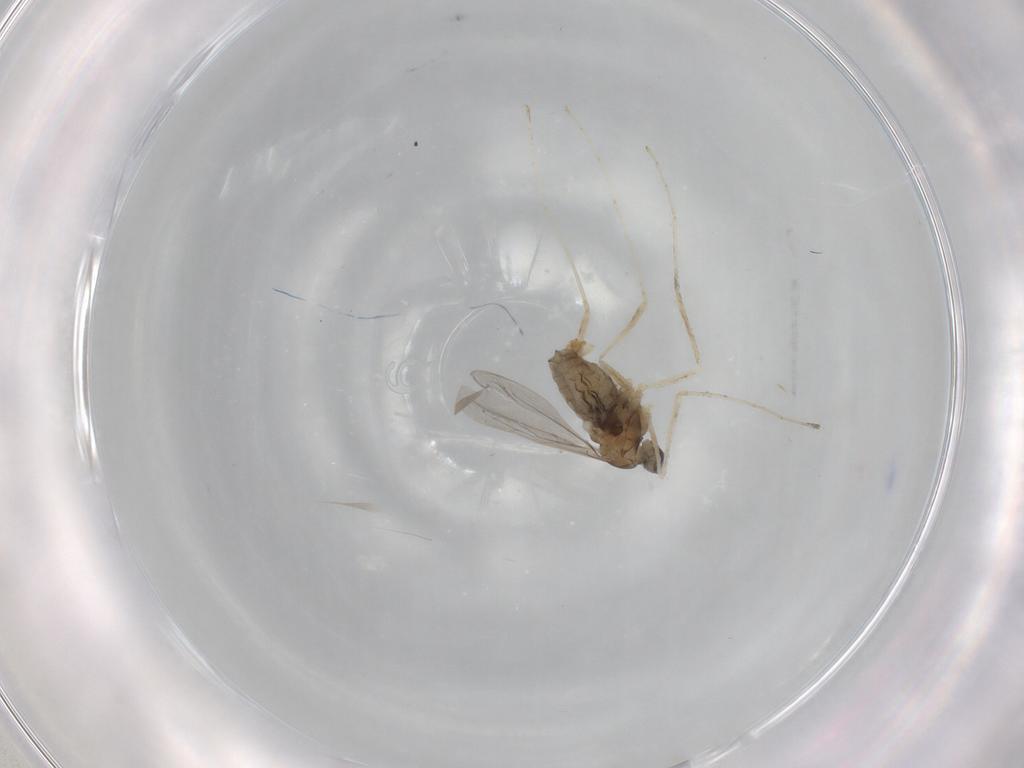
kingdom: Animalia
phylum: Arthropoda
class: Insecta
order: Diptera
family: Cecidomyiidae
